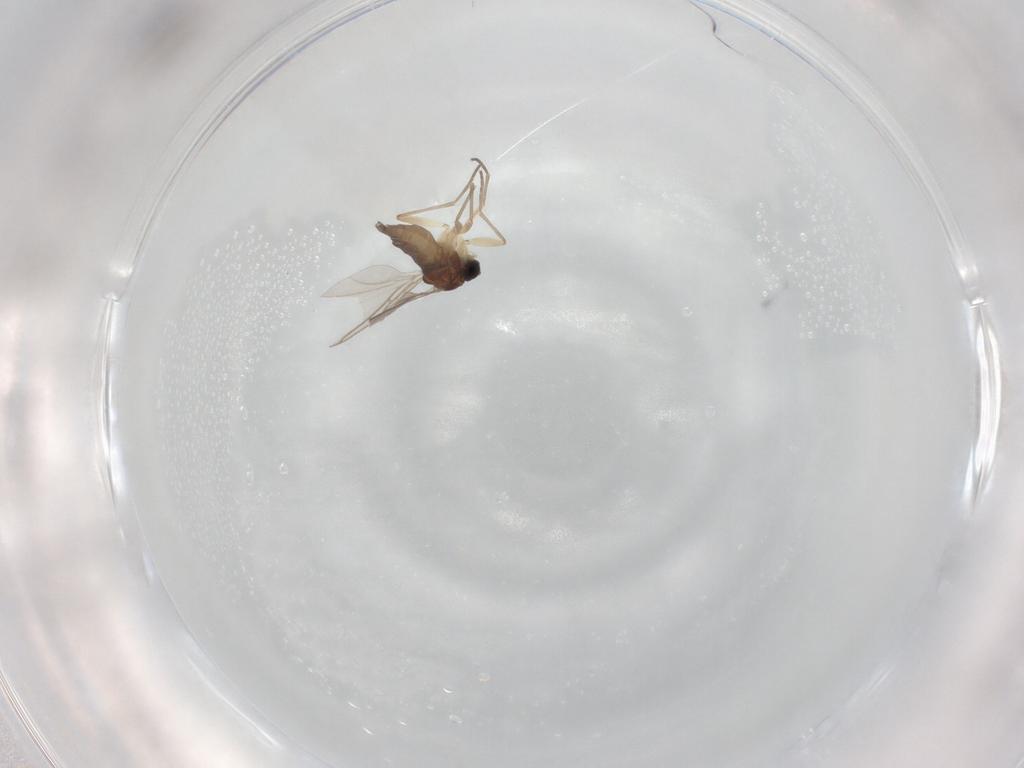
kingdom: Animalia
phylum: Arthropoda
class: Insecta
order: Diptera
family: Sciaridae
